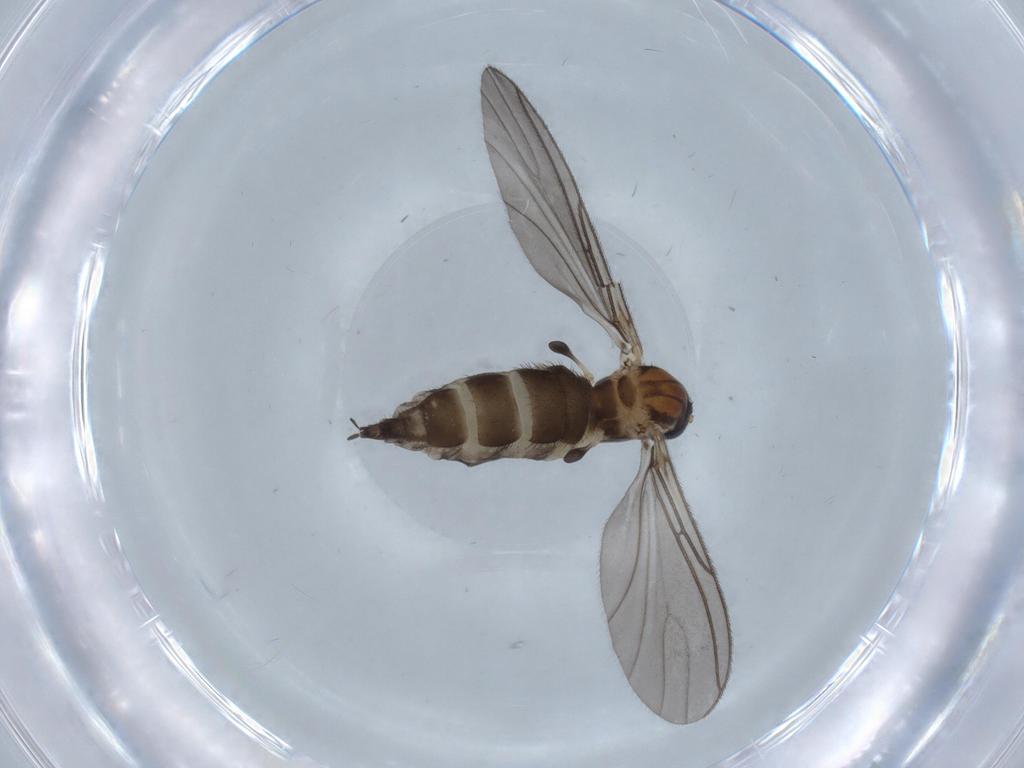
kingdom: Animalia
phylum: Arthropoda
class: Insecta
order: Diptera
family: Sciaridae
